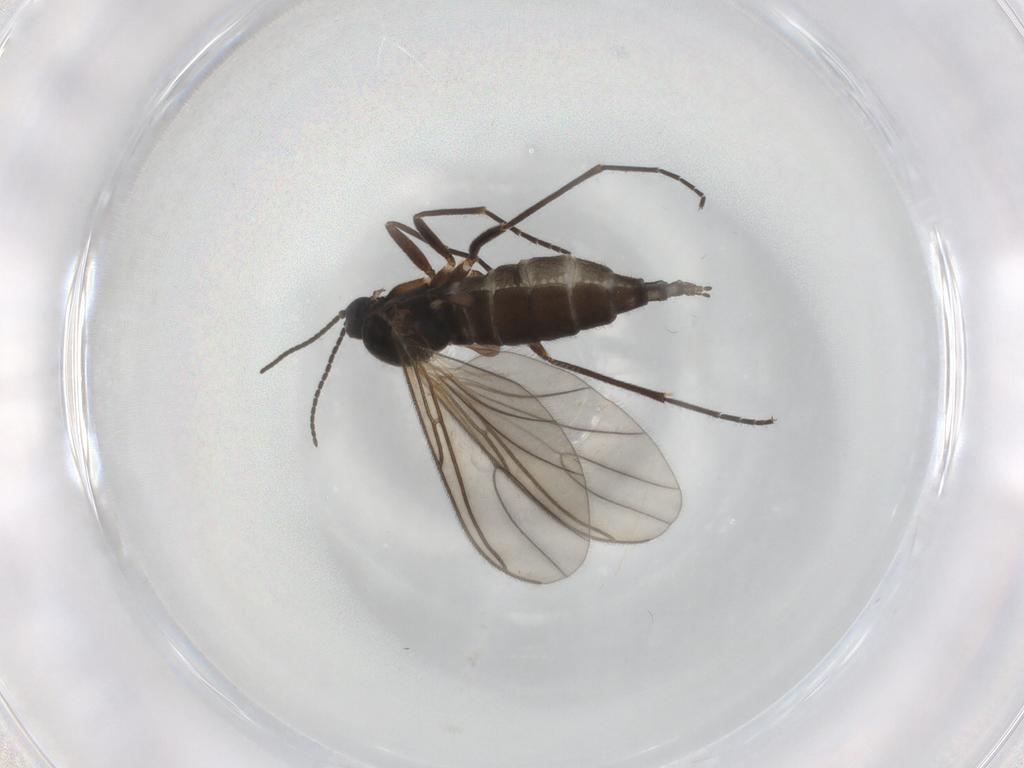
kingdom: Animalia
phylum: Arthropoda
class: Insecta
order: Diptera
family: Sciaridae
